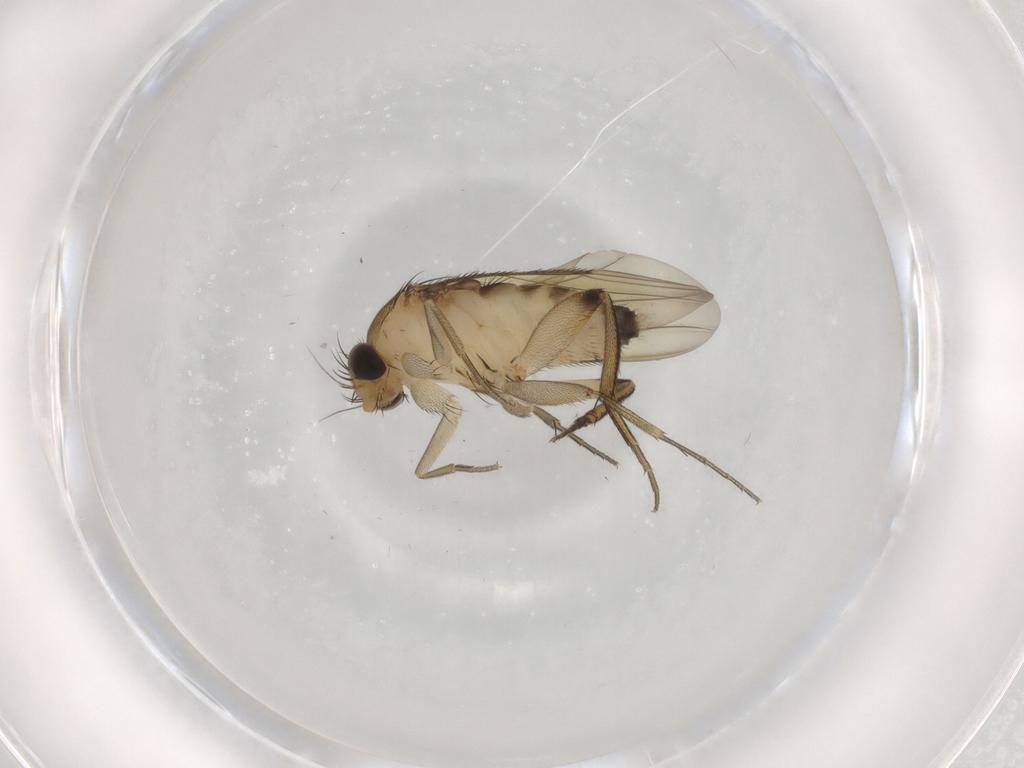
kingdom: Animalia
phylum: Arthropoda
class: Insecta
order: Diptera
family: Phoridae
